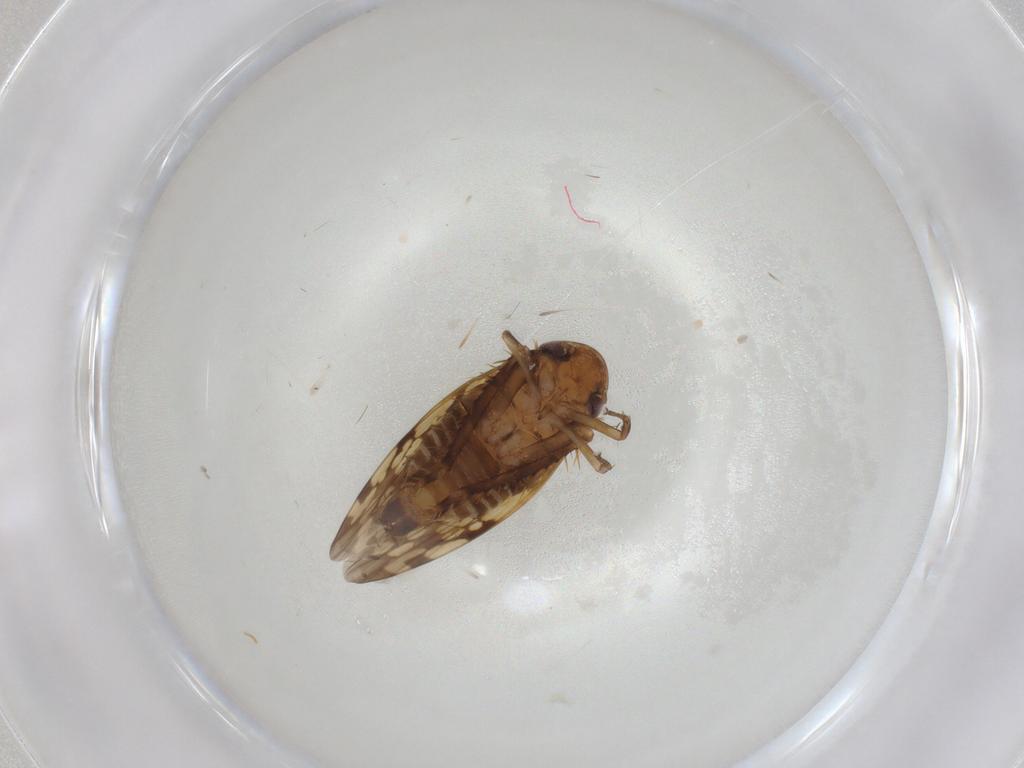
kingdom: Animalia
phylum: Arthropoda
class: Insecta
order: Hemiptera
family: Cicadellidae
